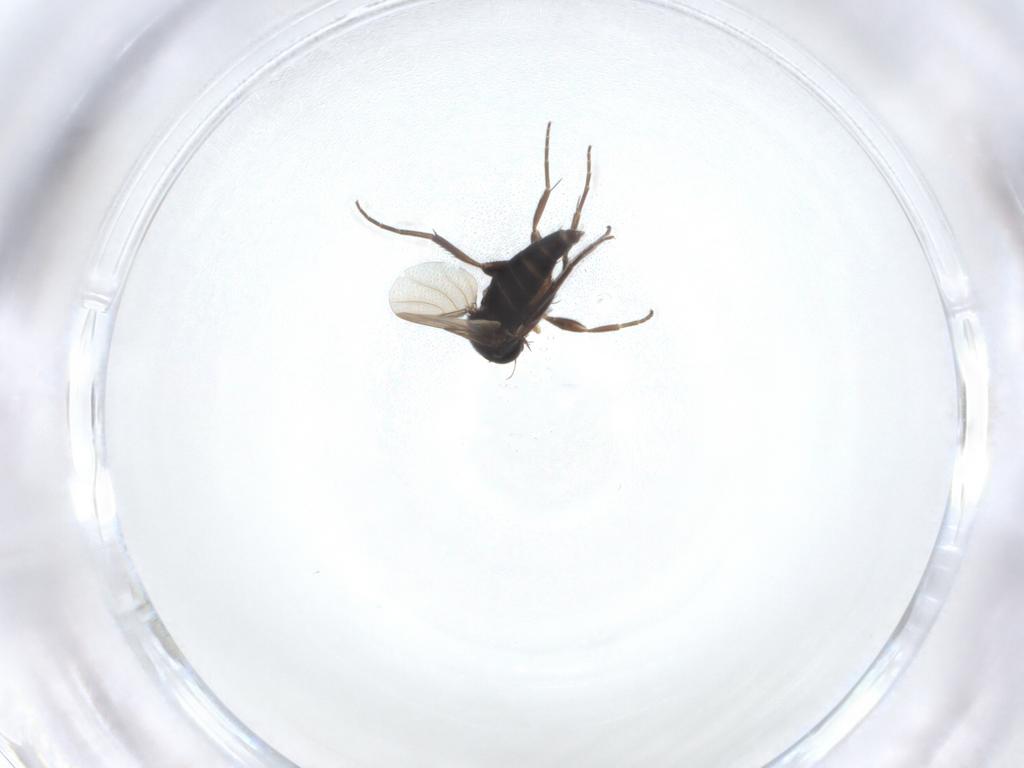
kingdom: Animalia
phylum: Arthropoda
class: Insecta
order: Diptera
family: Phoridae
